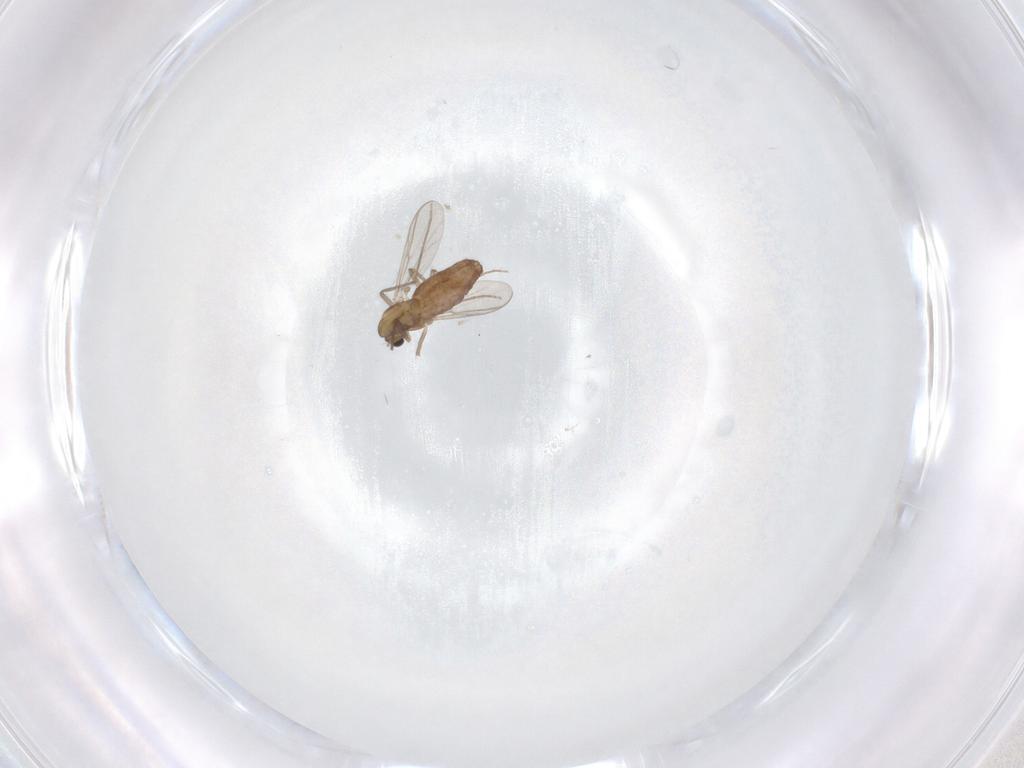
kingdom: Animalia
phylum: Arthropoda
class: Insecta
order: Diptera
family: Chironomidae
